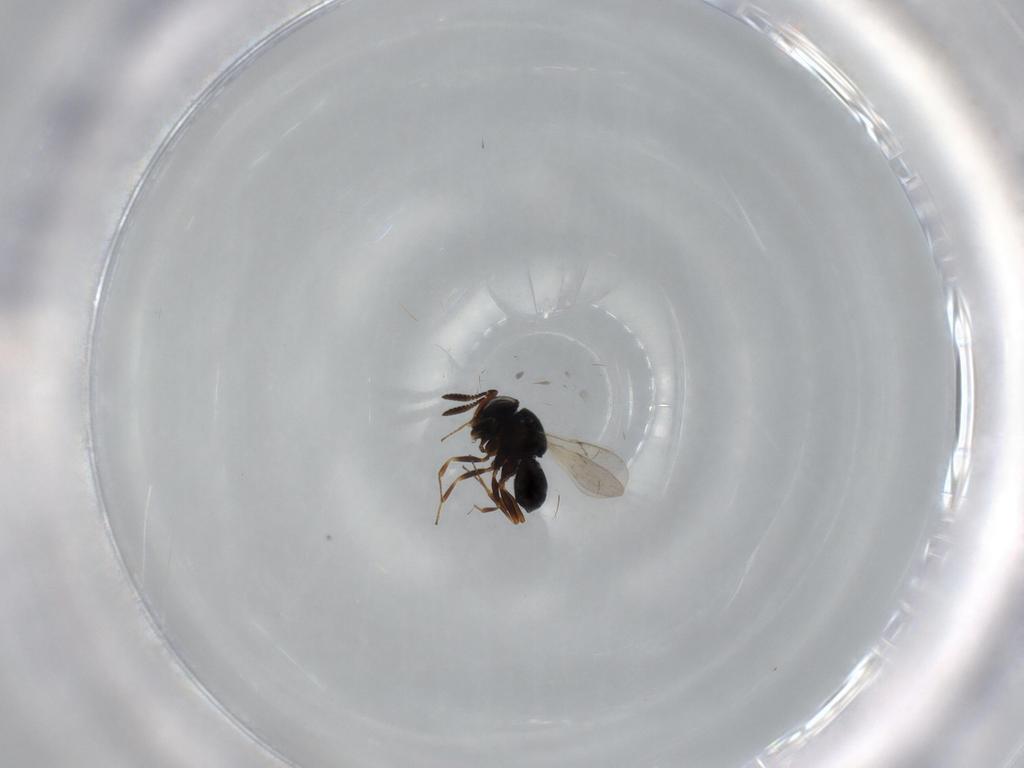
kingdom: Animalia
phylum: Arthropoda
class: Insecta
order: Hymenoptera
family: Scelionidae
